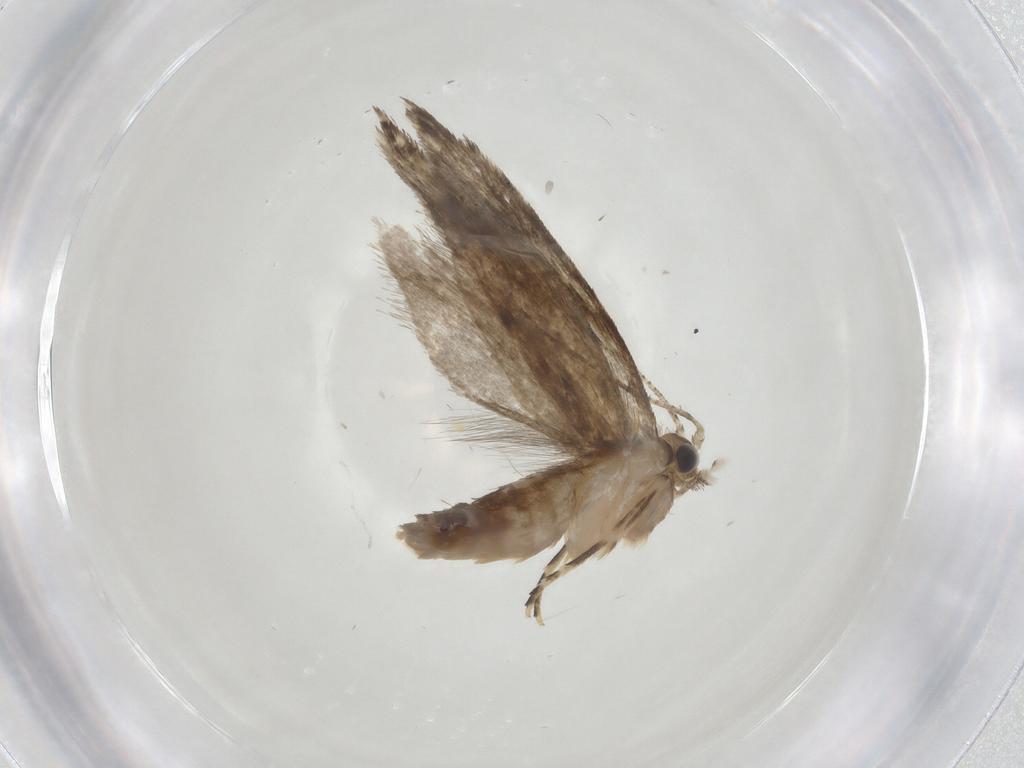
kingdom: Animalia
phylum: Arthropoda
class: Insecta
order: Lepidoptera
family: Tineidae
